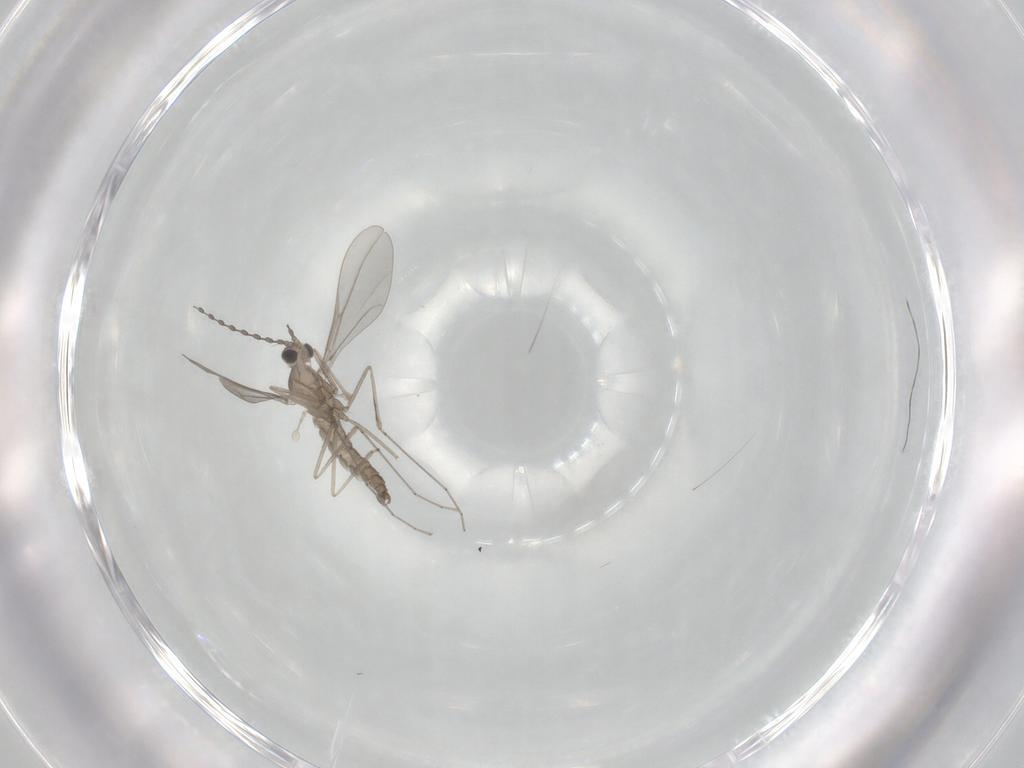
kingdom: Animalia
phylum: Arthropoda
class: Insecta
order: Diptera
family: Cecidomyiidae
